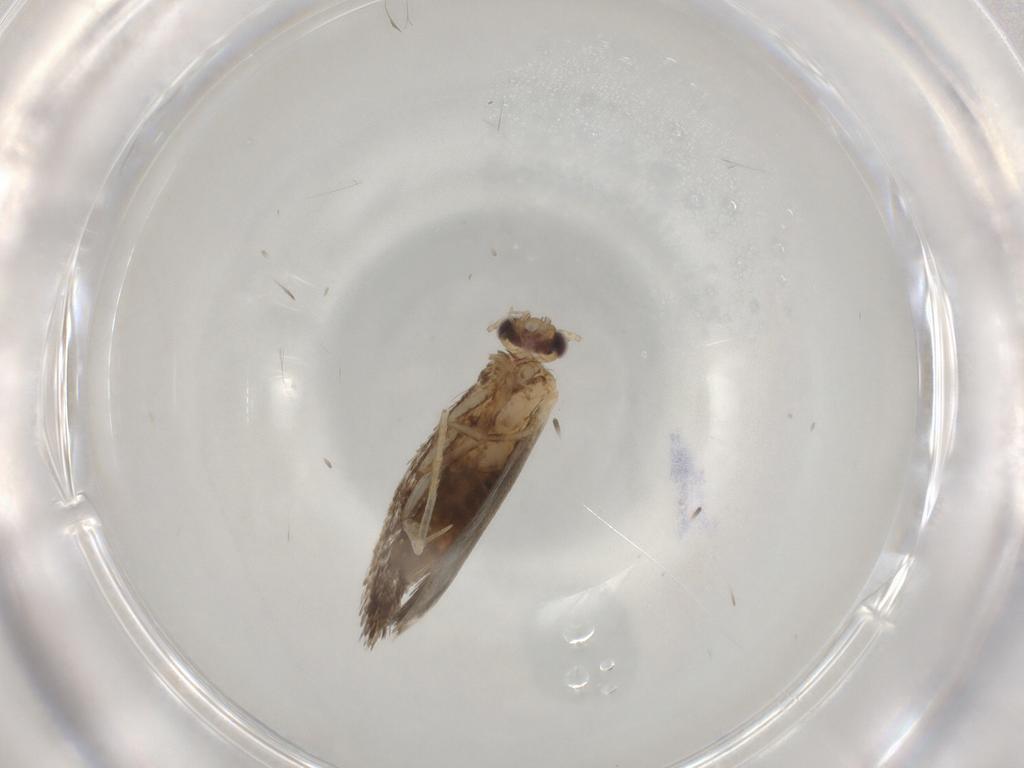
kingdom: Animalia
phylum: Arthropoda
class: Insecta
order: Lepidoptera
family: Tineidae
